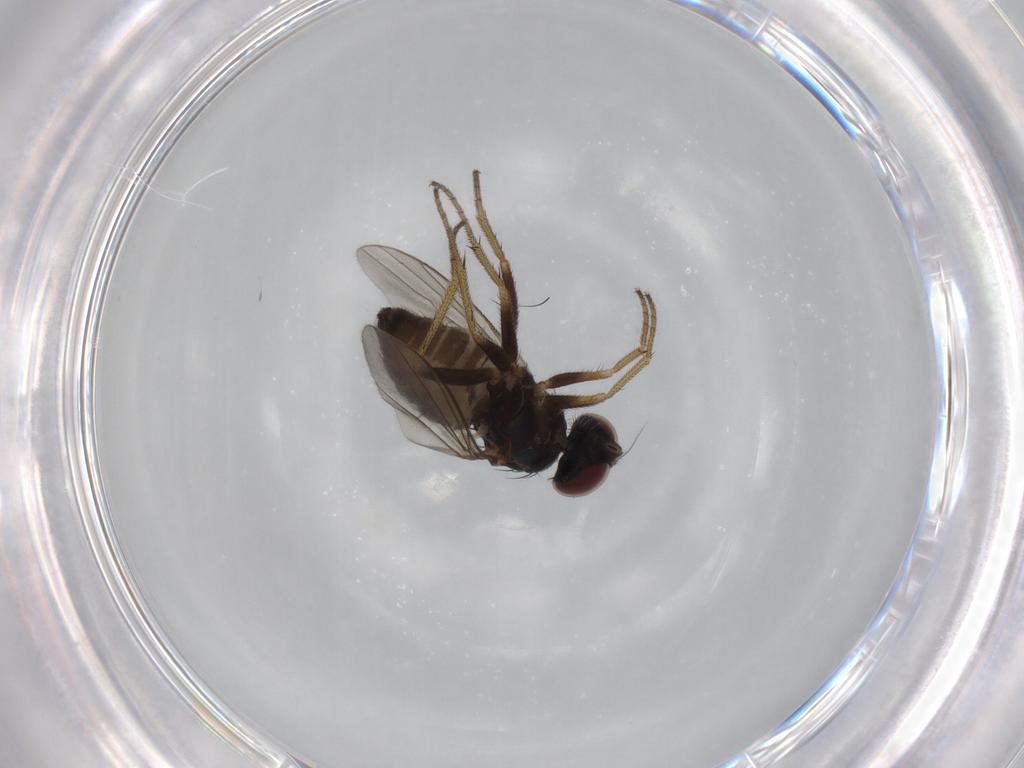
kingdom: Animalia
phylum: Arthropoda
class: Insecta
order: Diptera
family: Dolichopodidae
